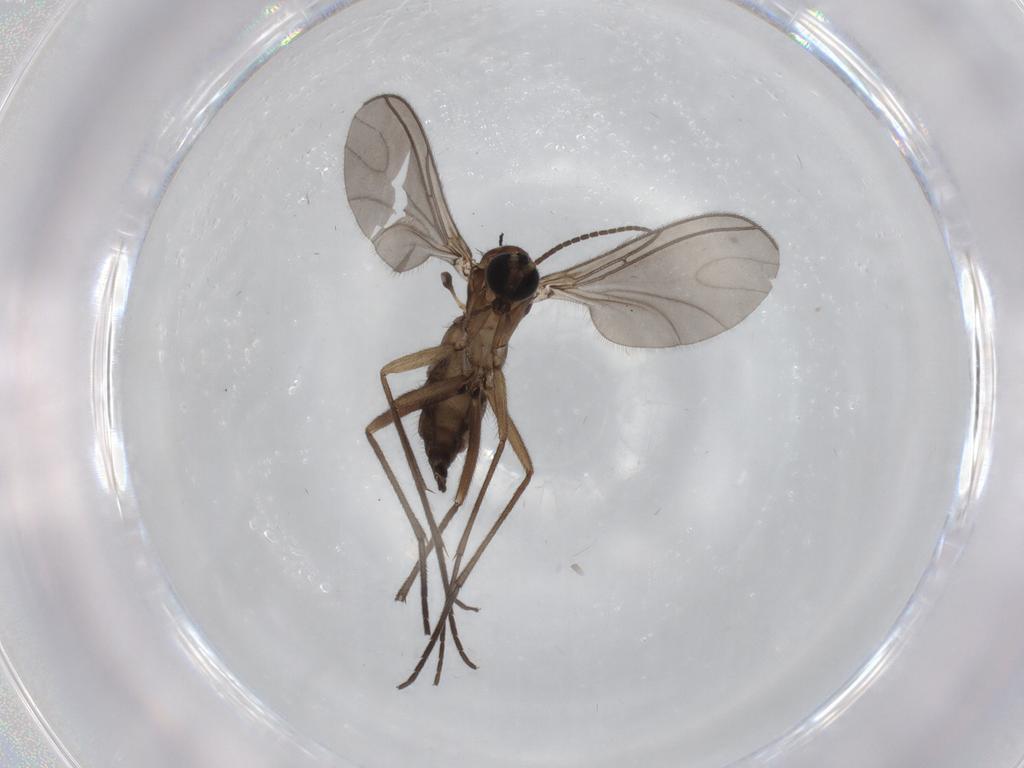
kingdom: Animalia
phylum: Arthropoda
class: Insecta
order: Diptera
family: Sciaridae
